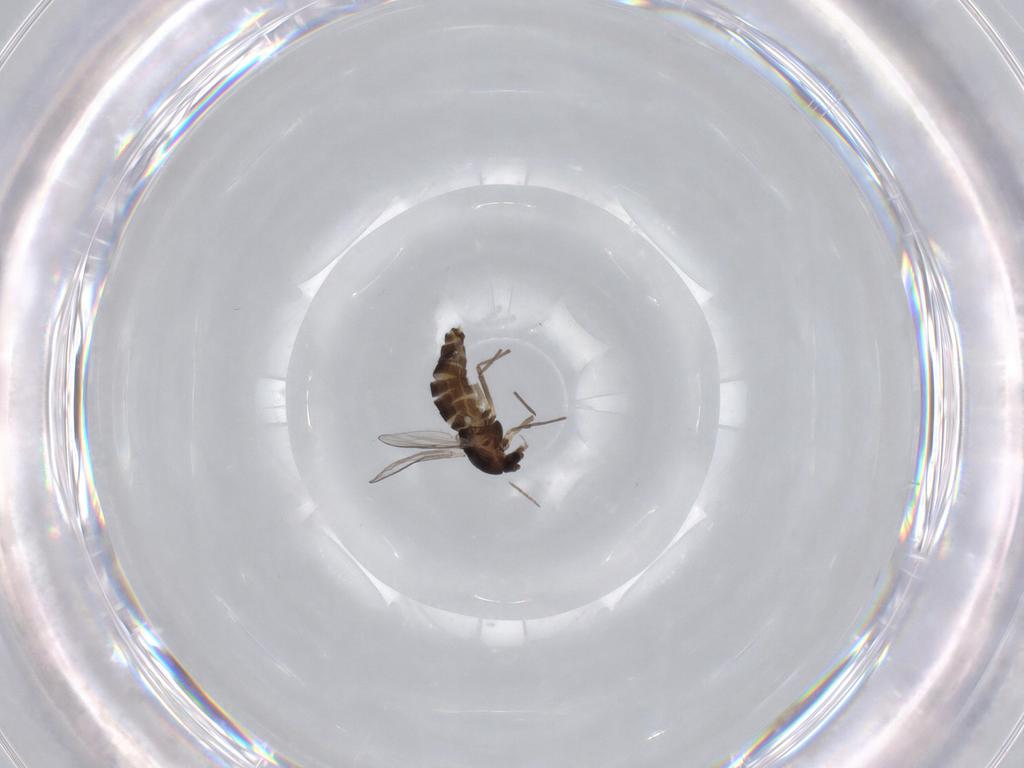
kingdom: Animalia
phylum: Arthropoda
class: Insecta
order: Diptera
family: Chironomidae
